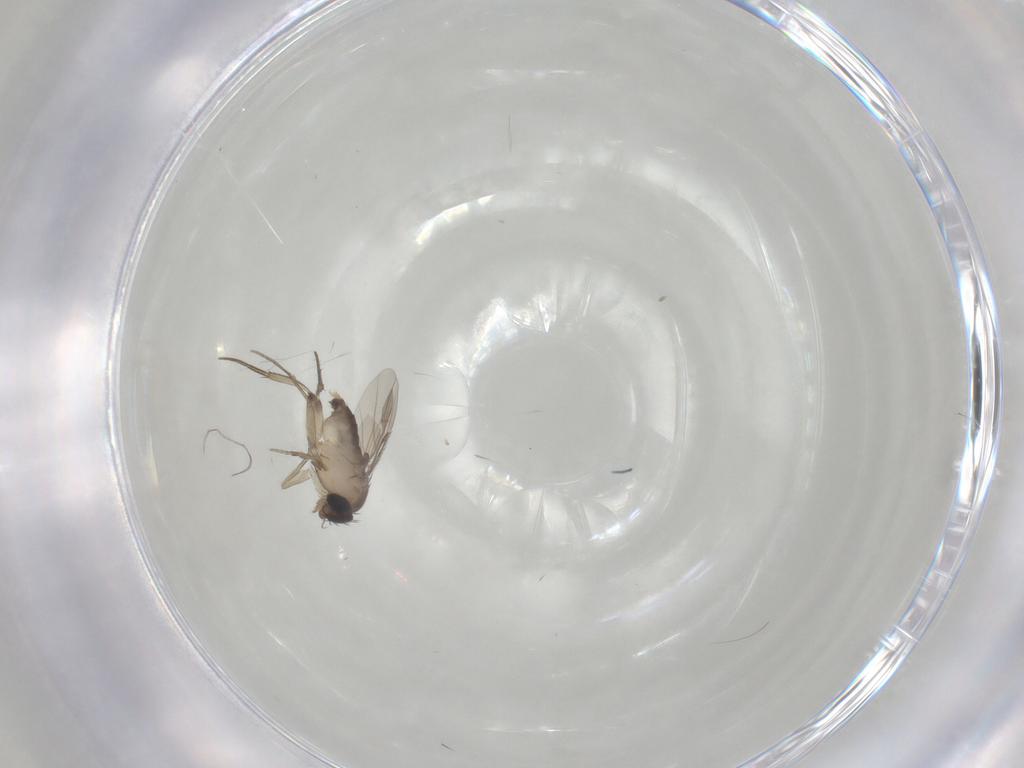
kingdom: Animalia
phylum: Arthropoda
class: Insecta
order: Diptera
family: Phoridae
